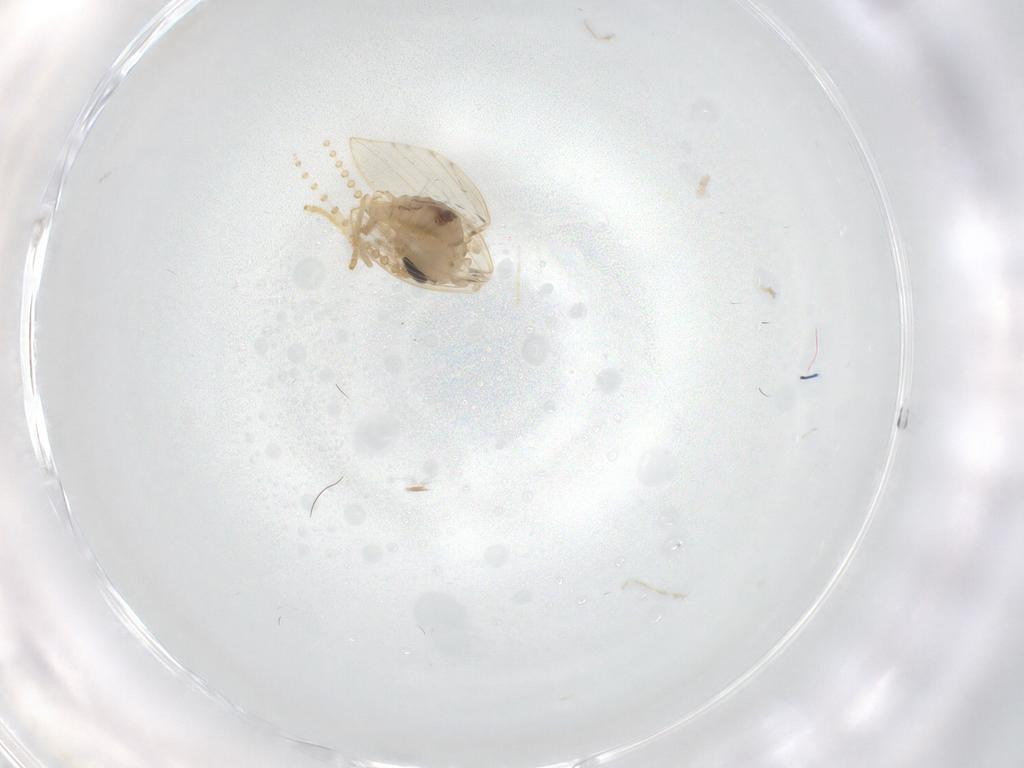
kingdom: Animalia
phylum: Arthropoda
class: Insecta
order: Diptera
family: Psychodidae
